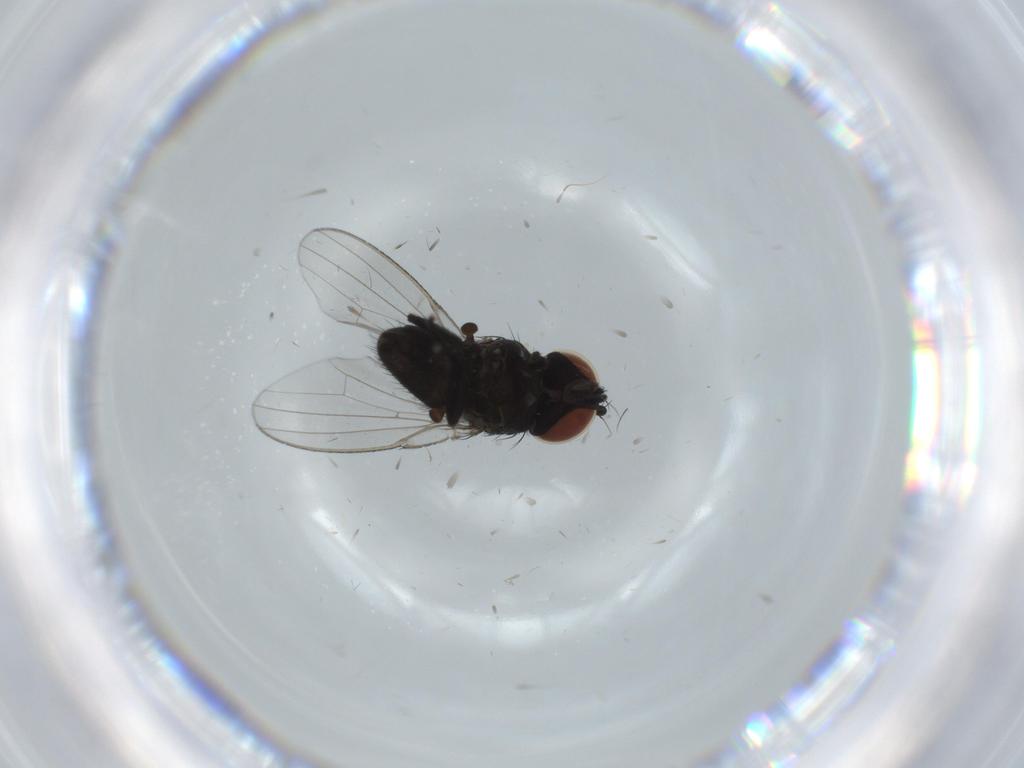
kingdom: Animalia
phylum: Arthropoda
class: Insecta
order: Diptera
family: Milichiidae
